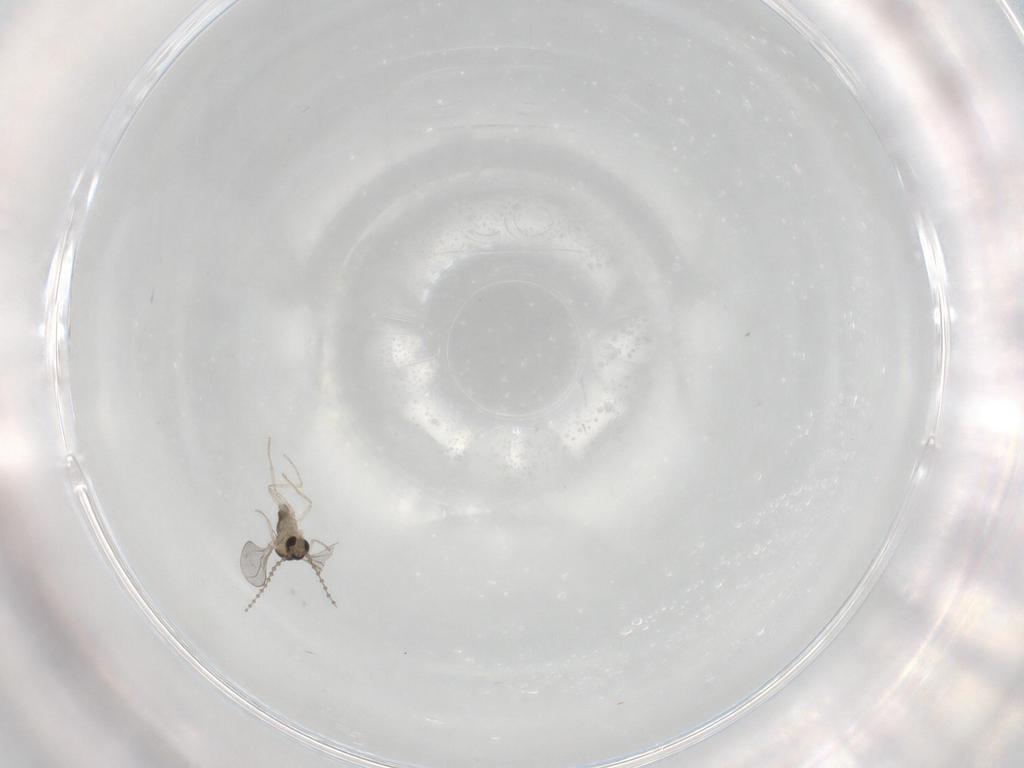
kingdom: Animalia
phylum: Arthropoda
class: Insecta
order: Diptera
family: Cecidomyiidae
